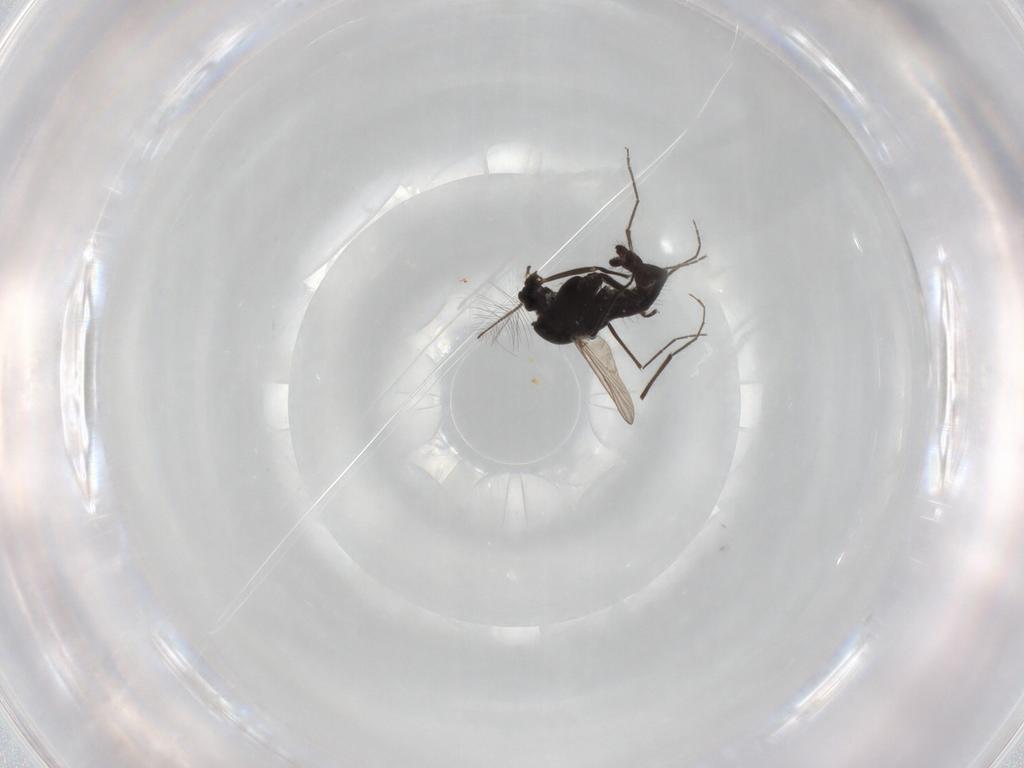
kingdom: Animalia
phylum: Arthropoda
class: Insecta
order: Diptera
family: Chironomidae
